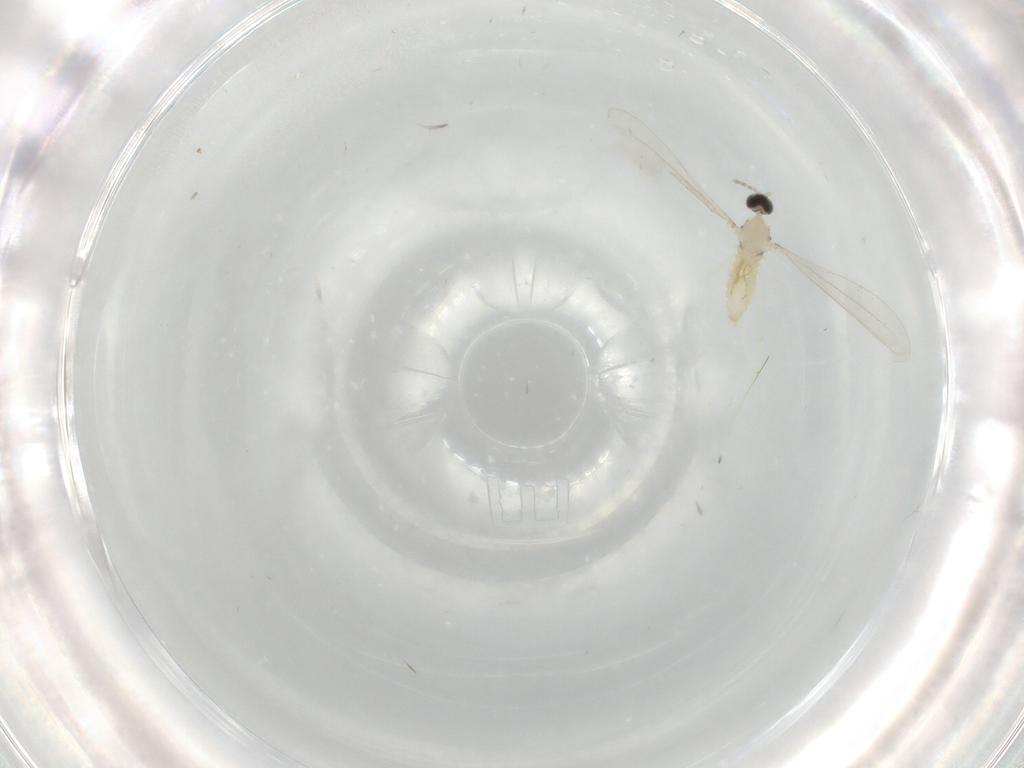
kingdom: Animalia
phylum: Arthropoda
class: Insecta
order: Diptera
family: Cecidomyiidae
